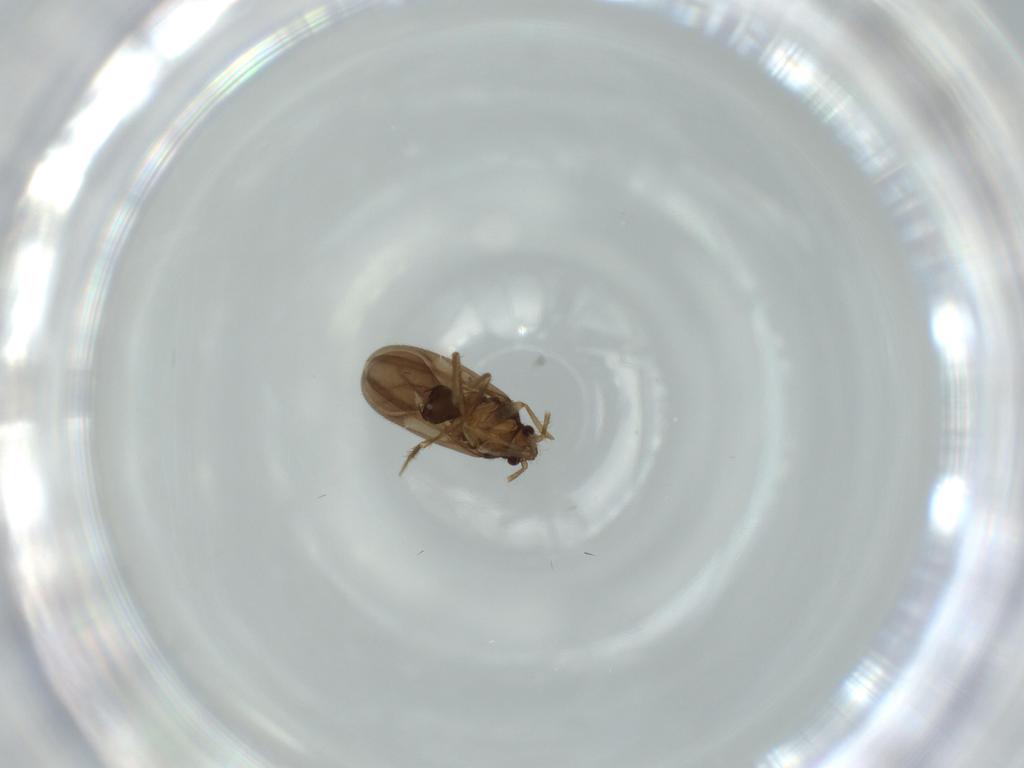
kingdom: Animalia
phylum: Arthropoda
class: Insecta
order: Hemiptera
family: Ceratocombidae
